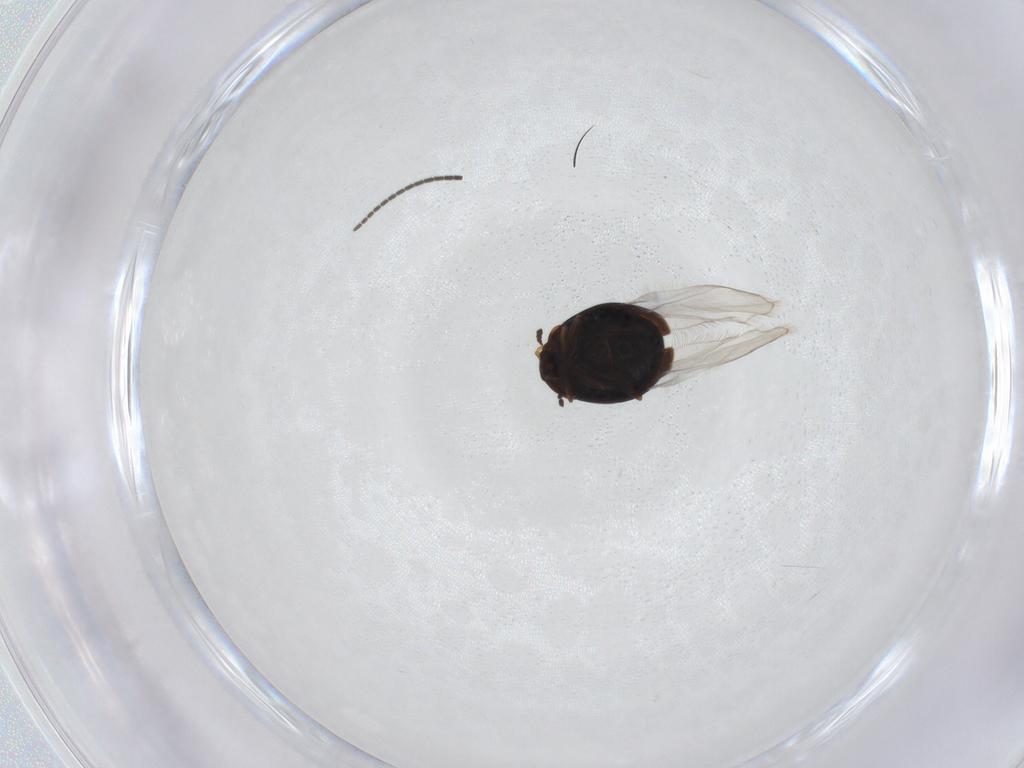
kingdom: Animalia
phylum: Arthropoda
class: Insecta
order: Coleoptera
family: Corylophidae
